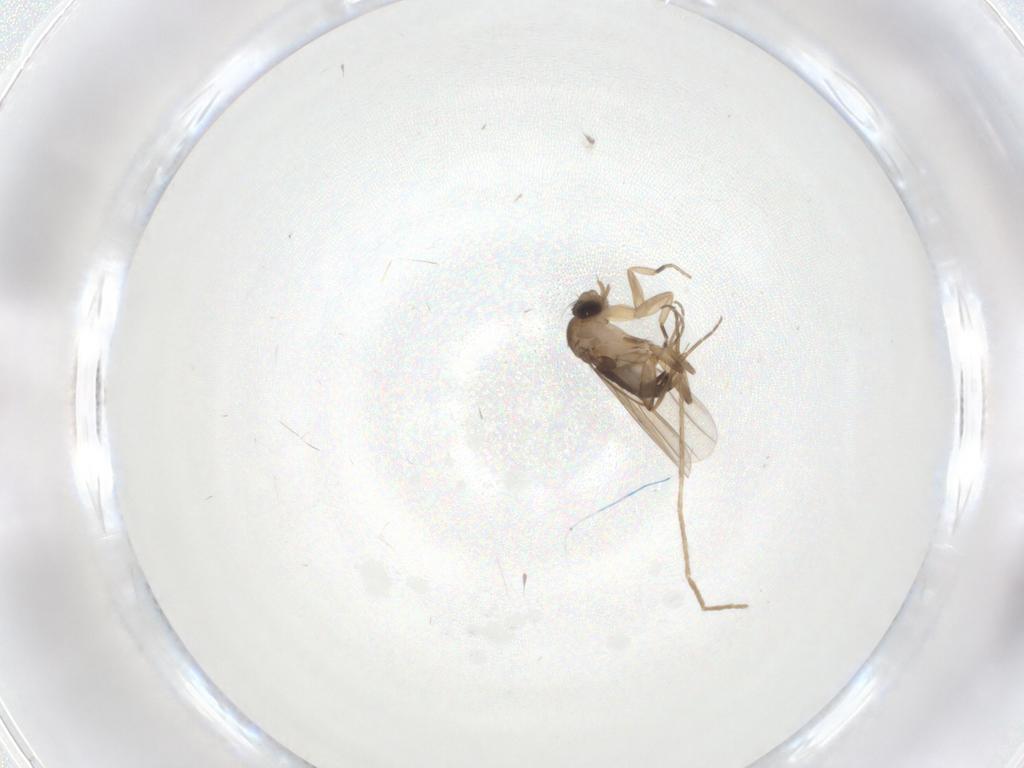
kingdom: Animalia
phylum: Arthropoda
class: Insecta
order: Diptera
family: Phoridae
